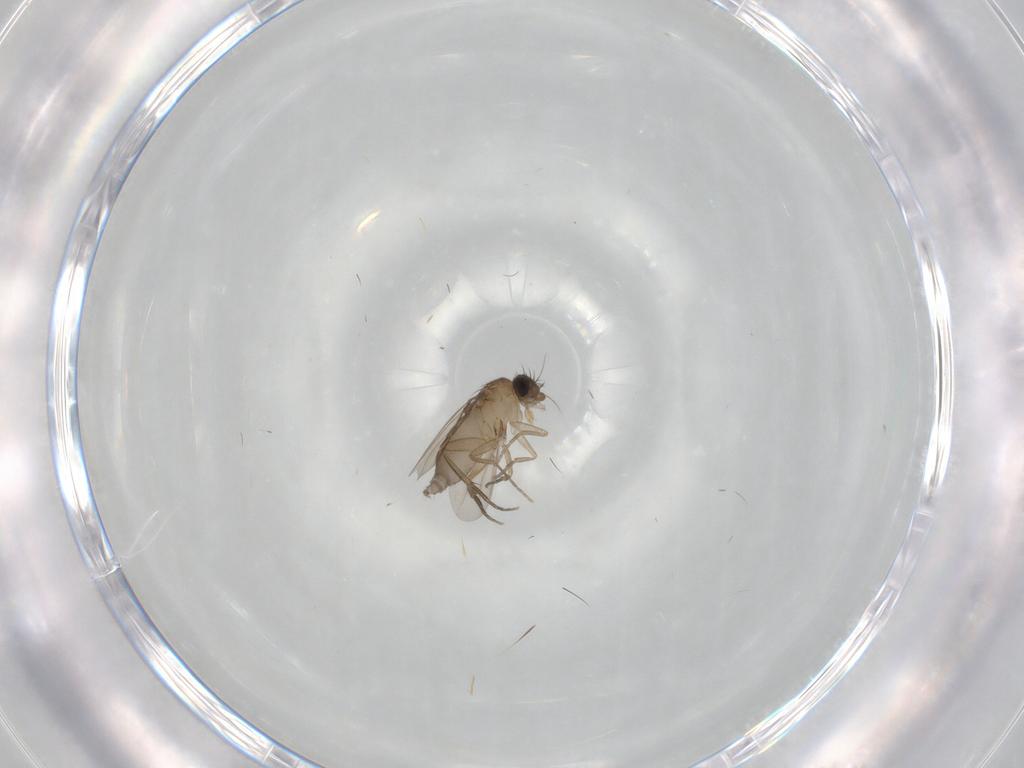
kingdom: Animalia
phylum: Arthropoda
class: Insecta
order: Diptera
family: Phoridae
